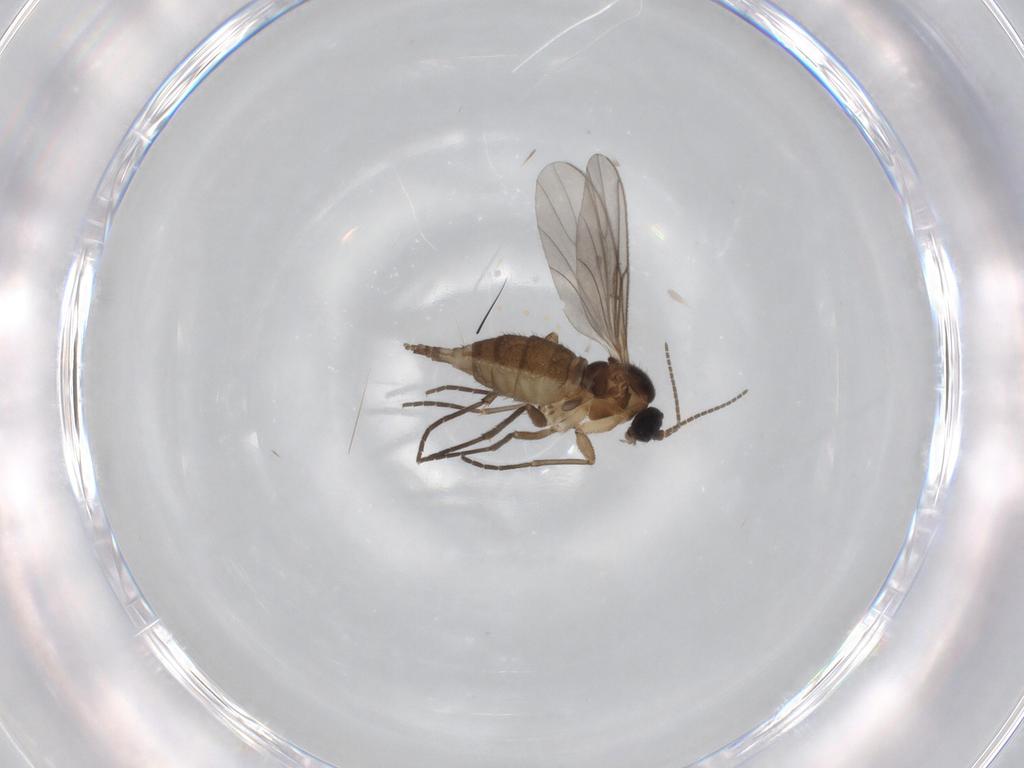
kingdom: Animalia
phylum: Arthropoda
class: Insecta
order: Diptera
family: Sciaridae
